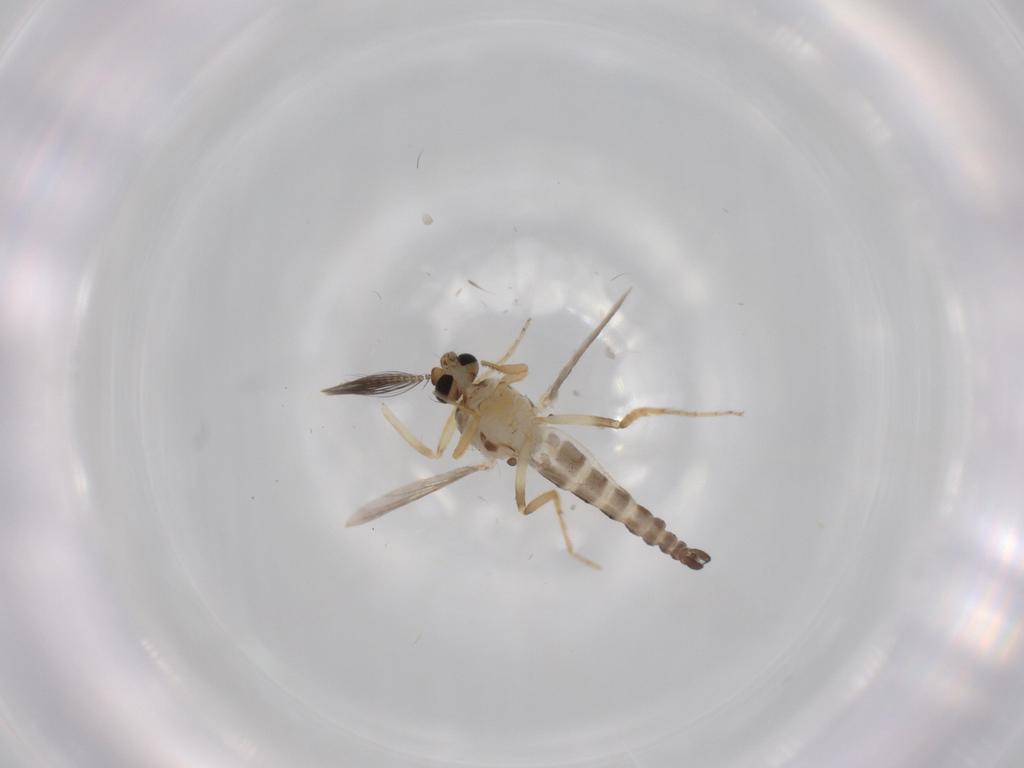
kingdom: Animalia
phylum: Arthropoda
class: Insecta
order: Diptera
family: Ceratopogonidae
